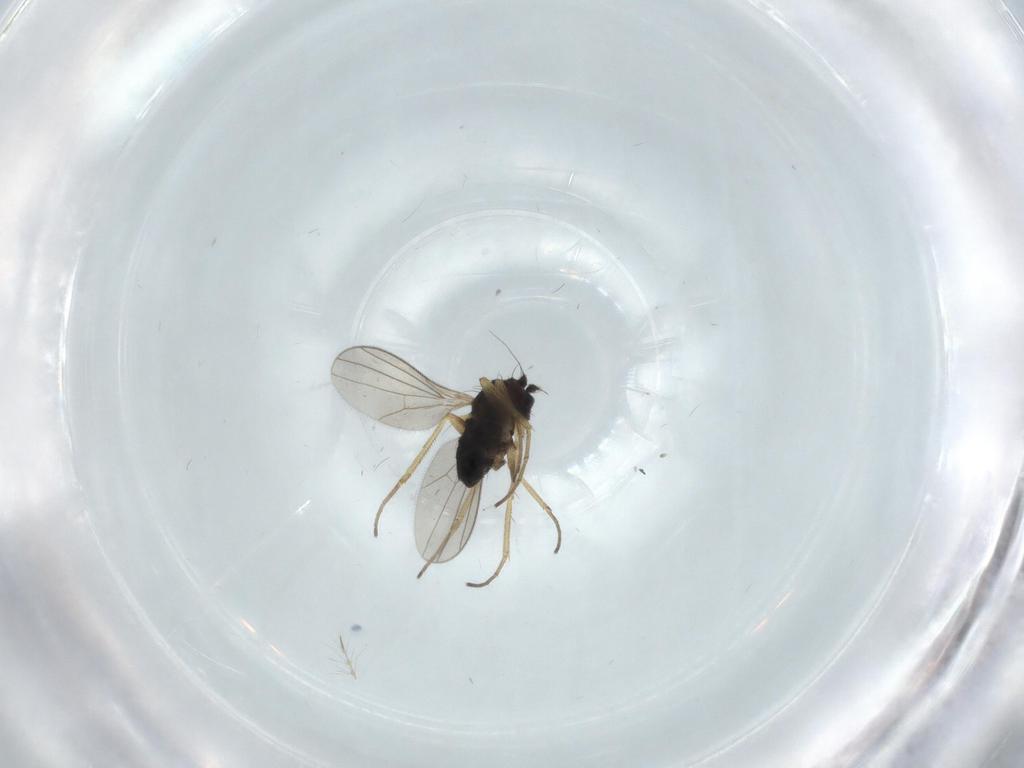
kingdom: Animalia
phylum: Arthropoda
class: Insecta
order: Diptera
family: Dolichopodidae
